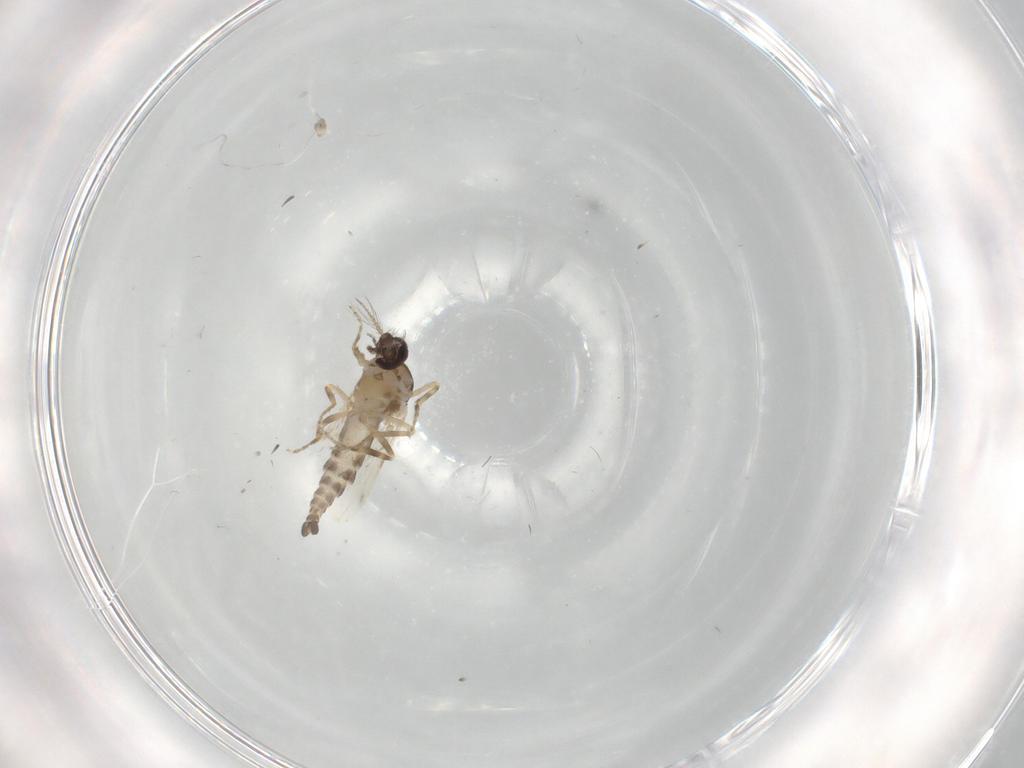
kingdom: Animalia
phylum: Arthropoda
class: Insecta
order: Diptera
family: Ceratopogonidae
